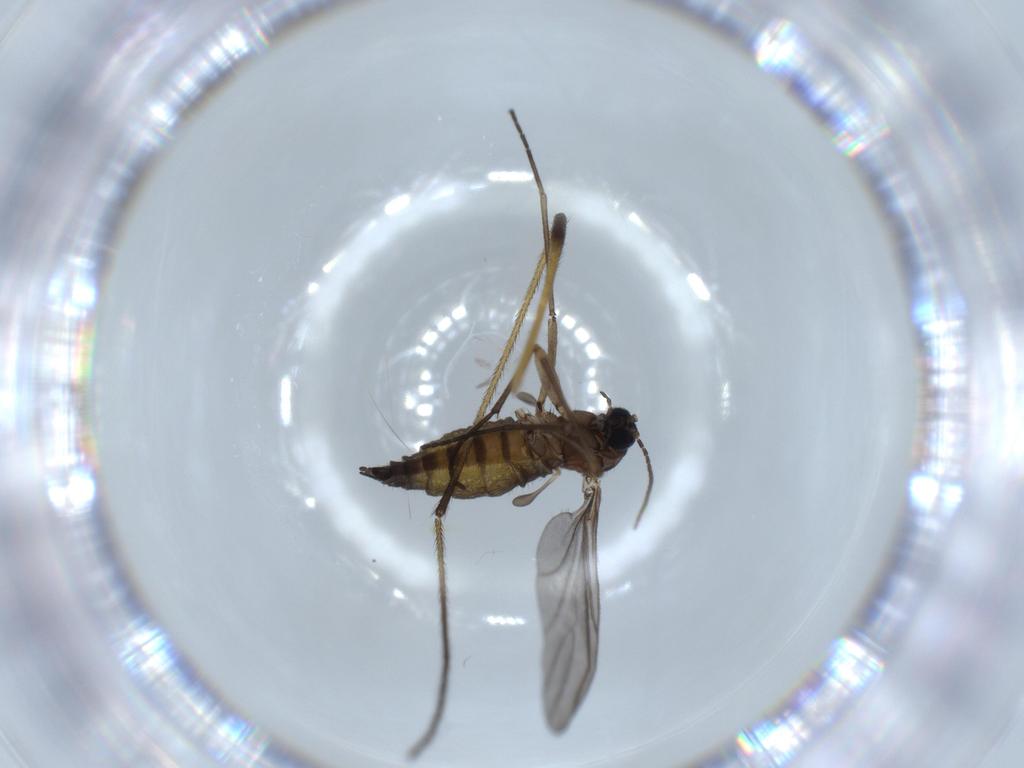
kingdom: Animalia
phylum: Arthropoda
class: Insecta
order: Diptera
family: Sciaridae
